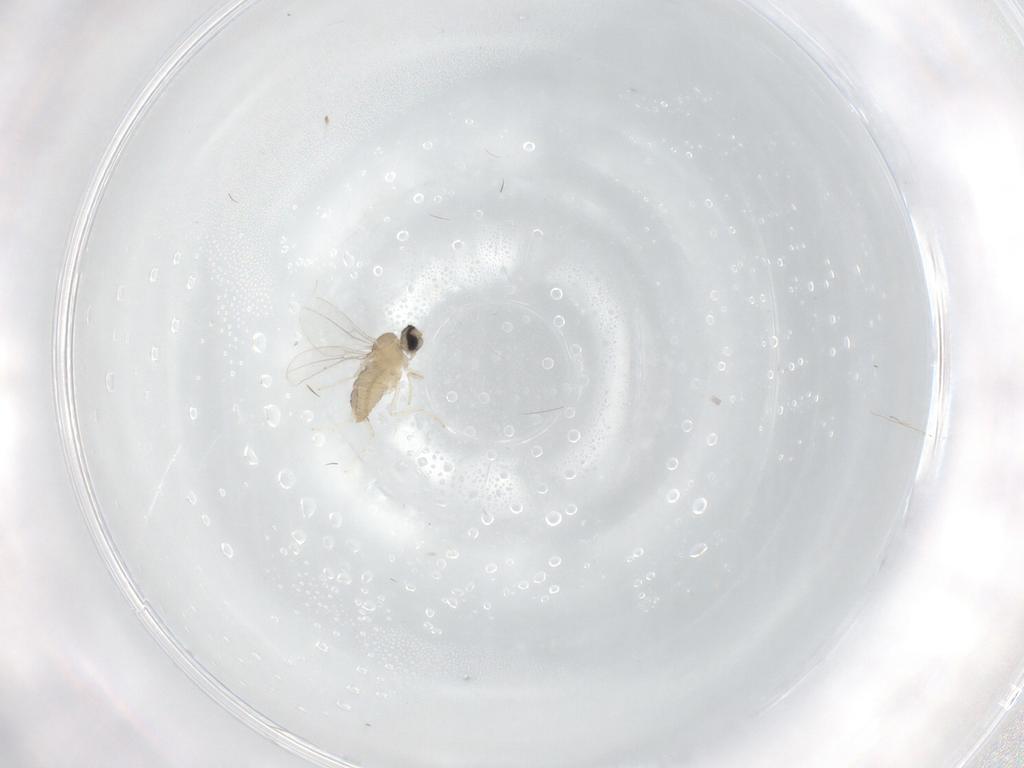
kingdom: Animalia
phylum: Arthropoda
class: Insecta
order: Diptera
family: Cecidomyiidae
